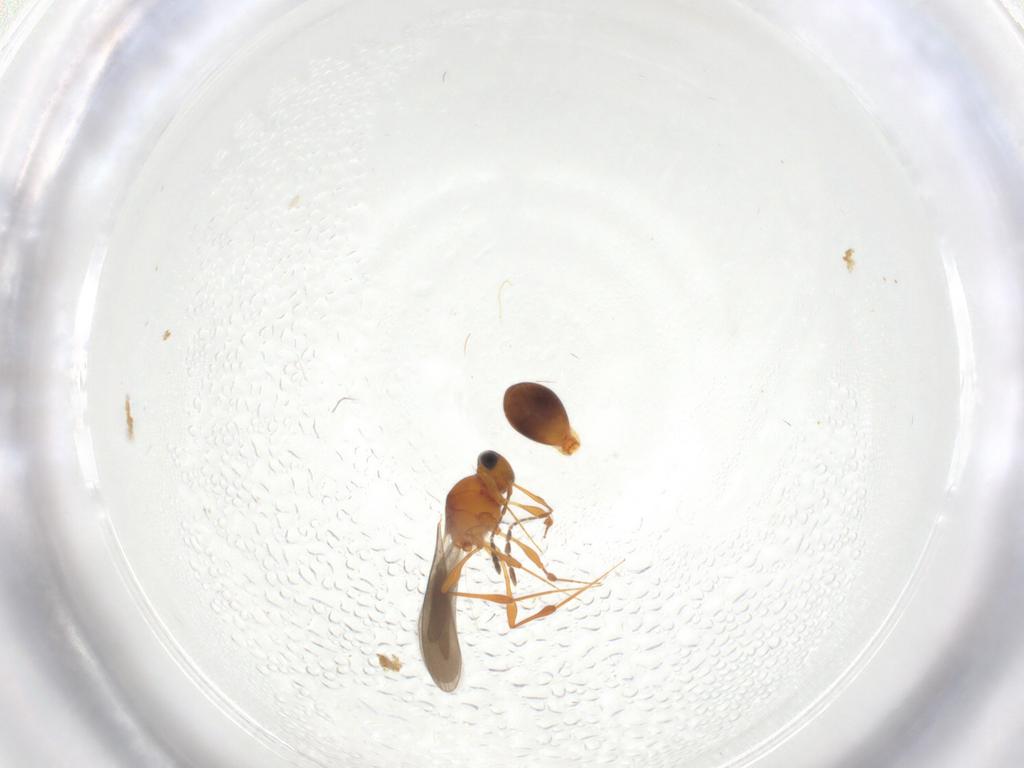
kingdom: Animalia
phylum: Arthropoda
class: Insecta
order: Hymenoptera
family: Platygastridae
